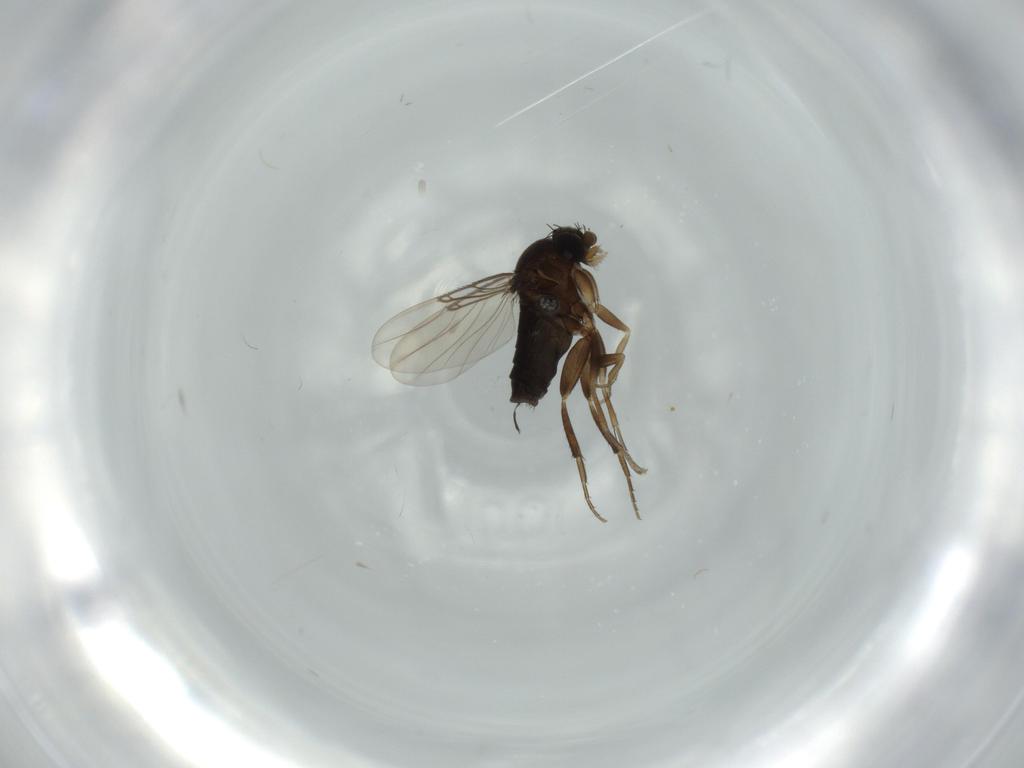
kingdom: Animalia
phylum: Arthropoda
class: Insecta
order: Diptera
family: Phoridae
